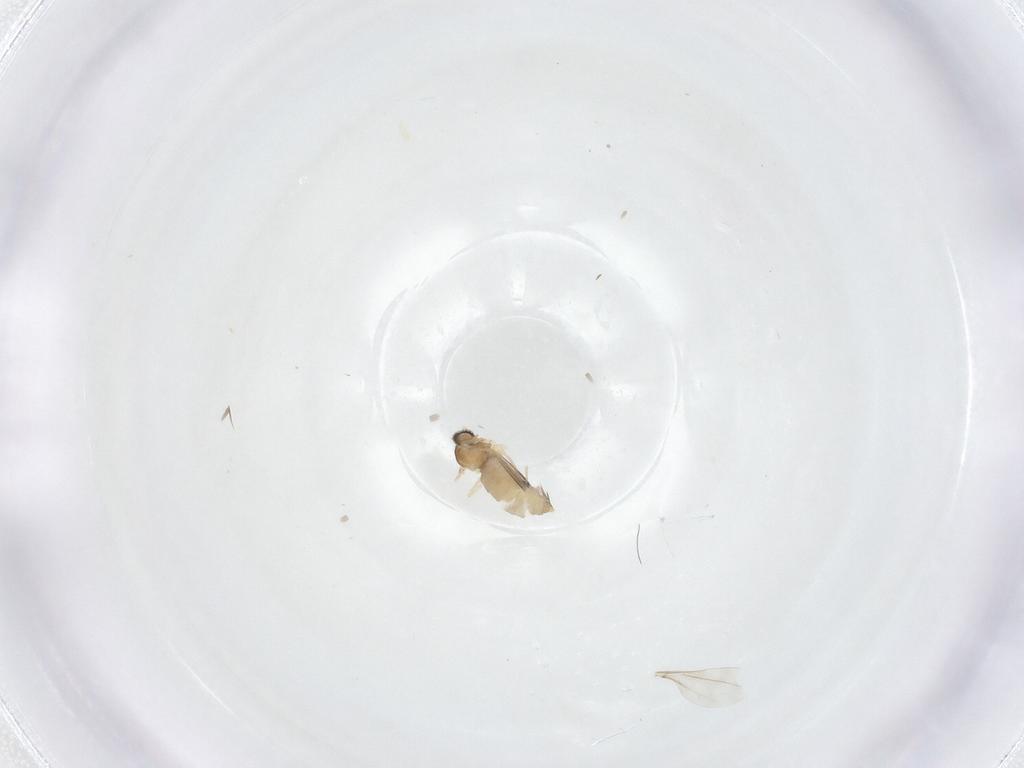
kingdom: Animalia
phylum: Arthropoda
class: Insecta
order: Diptera
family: Cecidomyiidae
